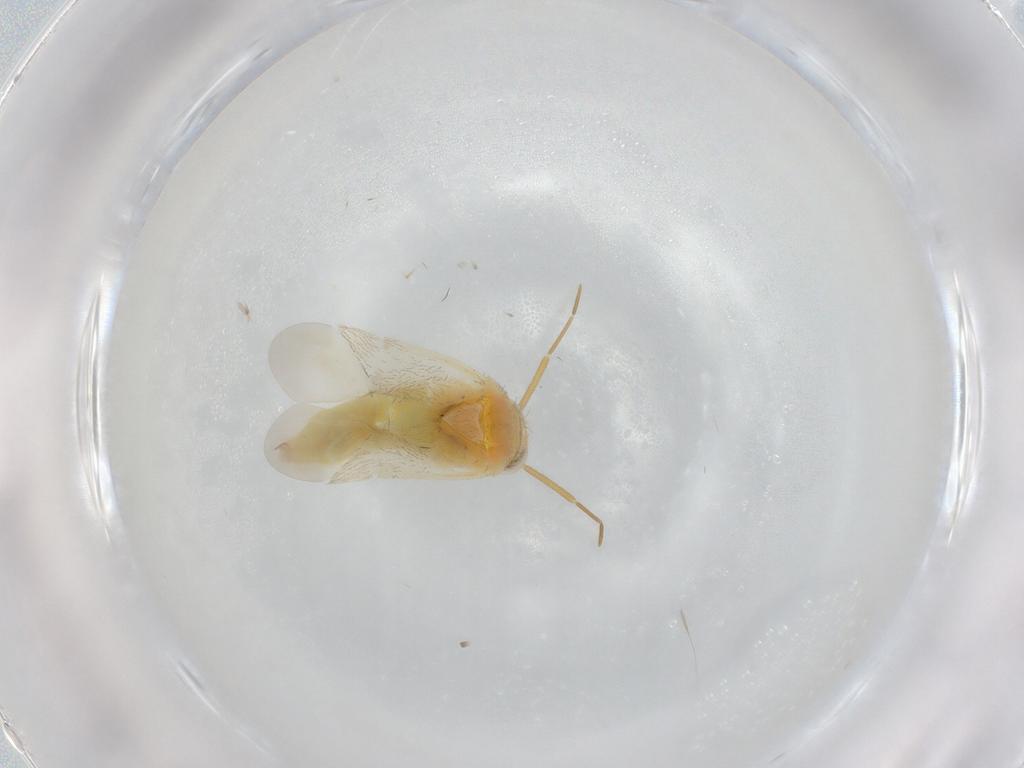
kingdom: Animalia
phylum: Arthropoda
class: Insecta
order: Hemiptera
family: Miridae
